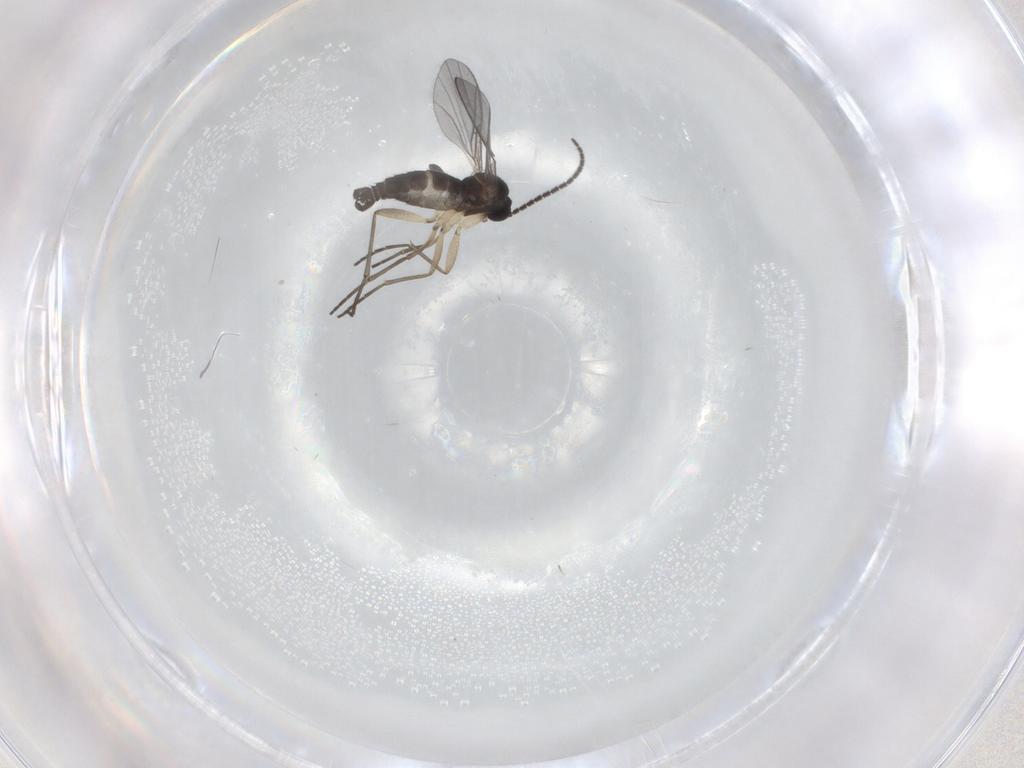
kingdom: Animalia
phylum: Arthropoda
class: Insecta
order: Diptera
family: Sciaridae
